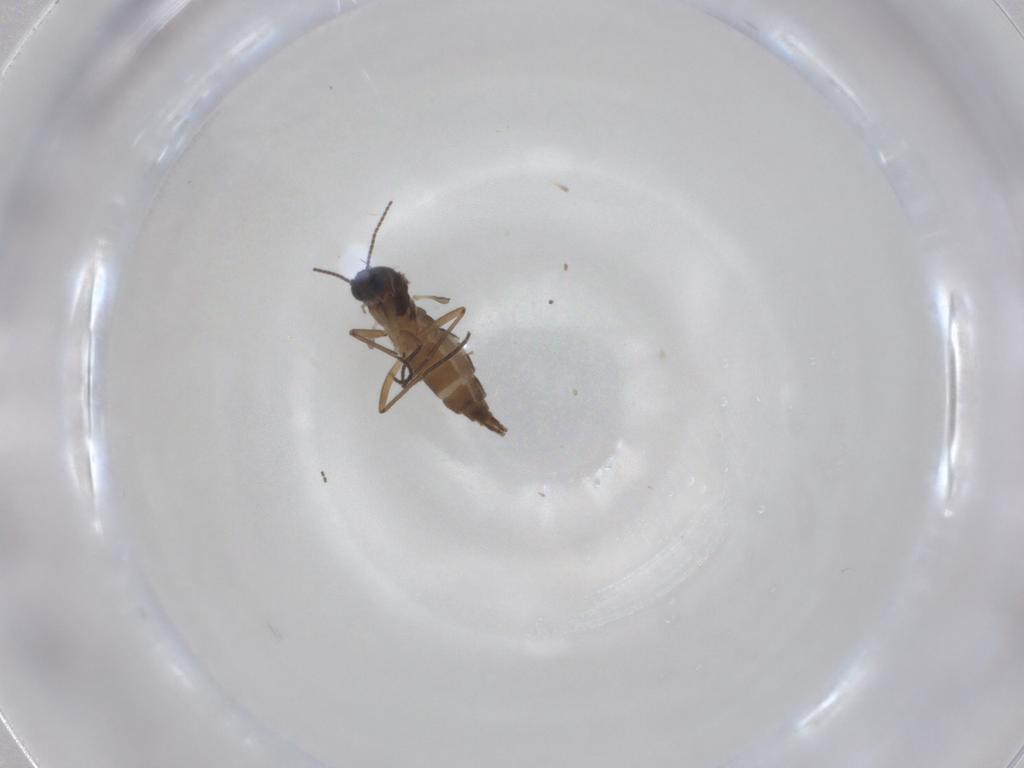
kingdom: Animalia
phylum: Arthropoda
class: Insecta
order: Diptera
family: Sciaridae
